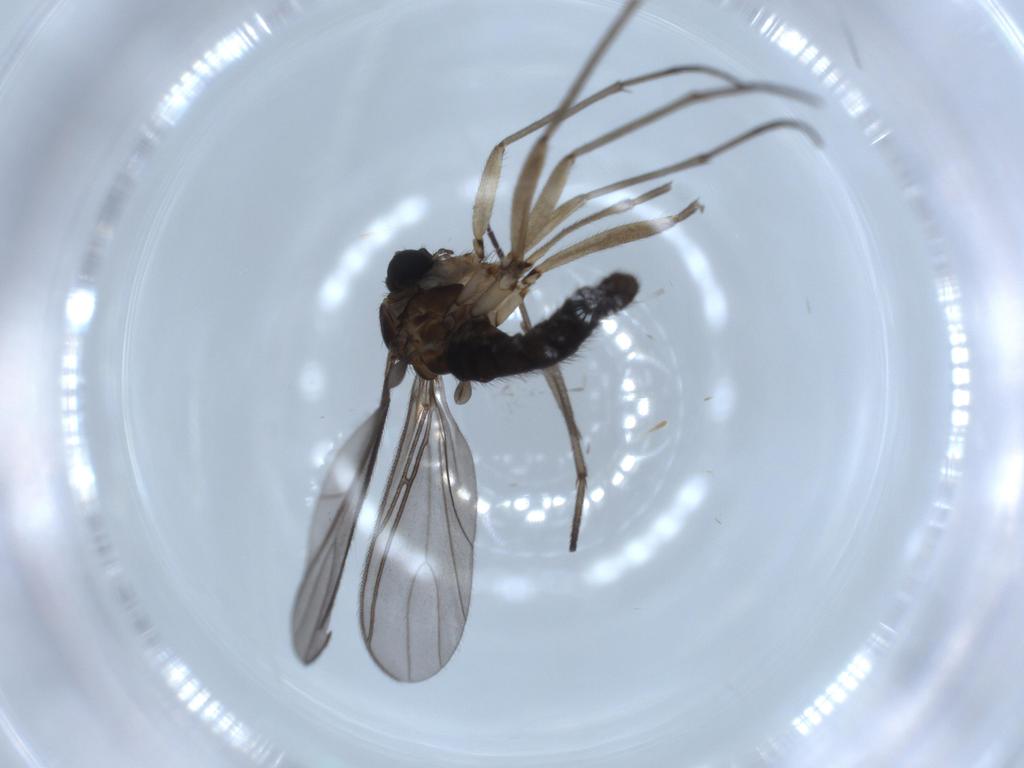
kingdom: Animalia
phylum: Arthropoda
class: Insecta
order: Diptera
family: Sciaridae
